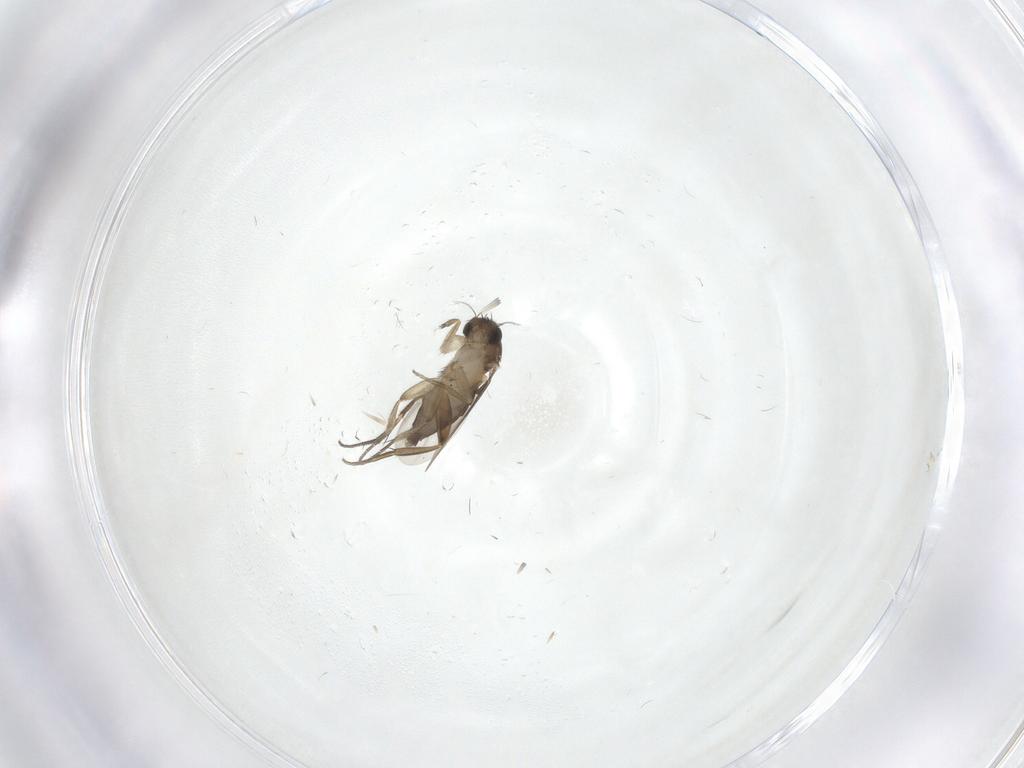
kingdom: Animalia
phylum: Arthropoda
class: Insecta
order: Diptera
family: Phoridae
